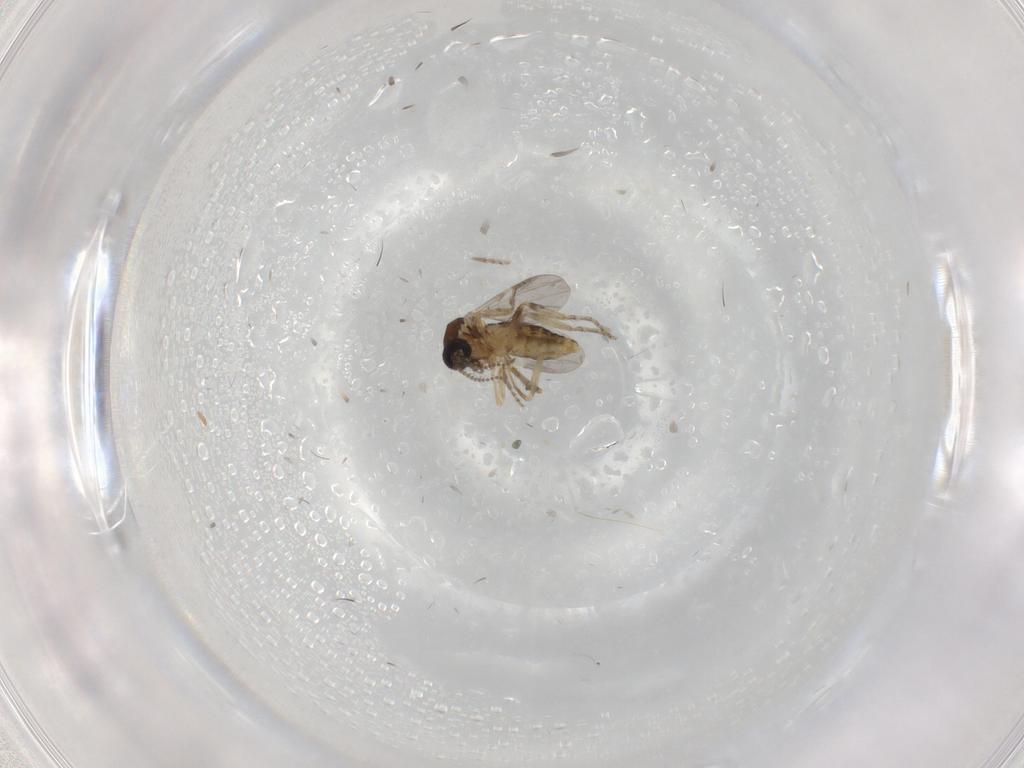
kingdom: Animalia
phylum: Arthropoda
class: Insecta
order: Diptera
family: Ceratopogonidae
